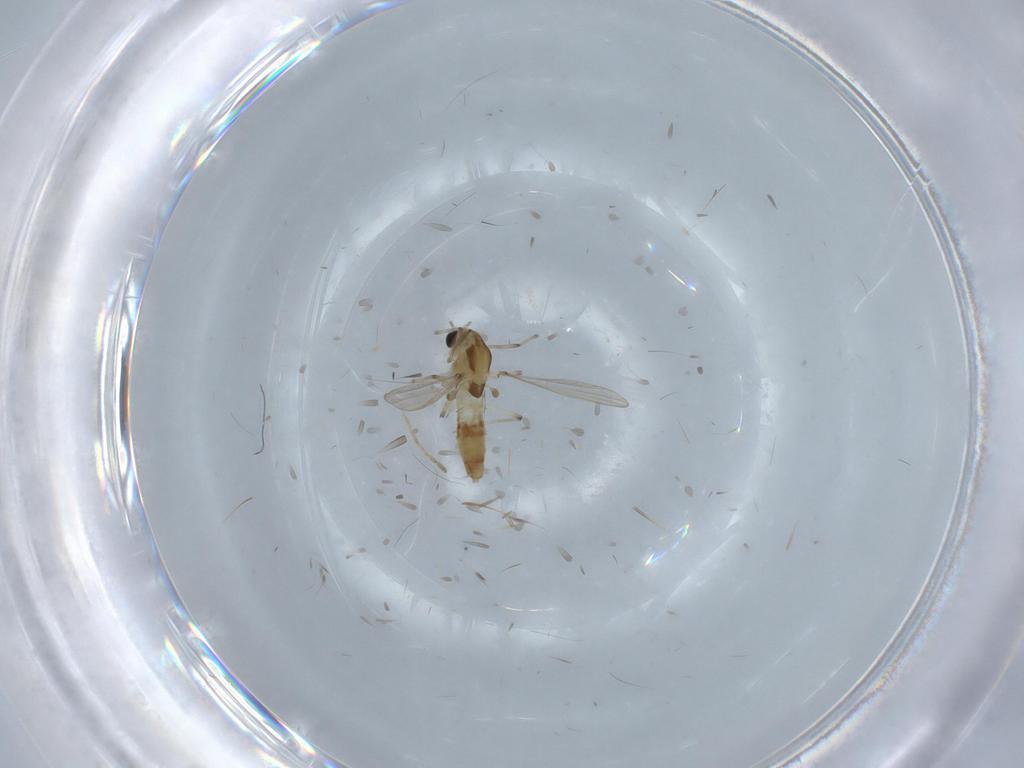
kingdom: Animalia
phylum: Arthropoda
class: Insecta
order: Diptera
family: Chironomidae
